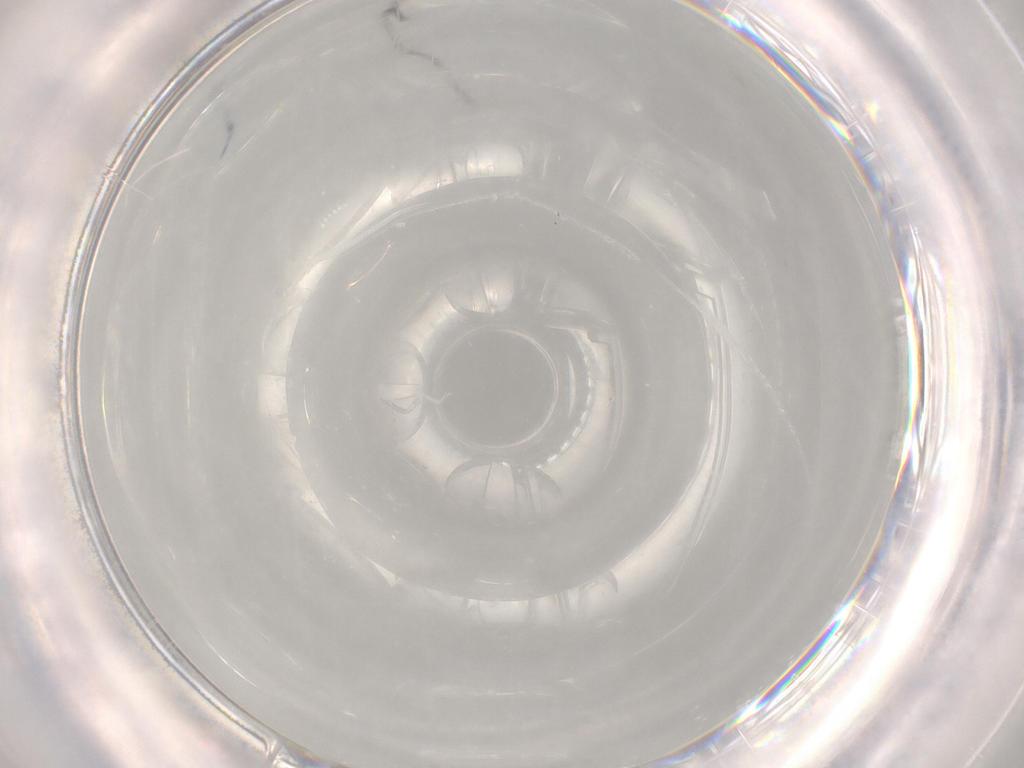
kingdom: Animalia
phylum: Arthropoda
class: Insecta
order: Diptera
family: Chironomidae
